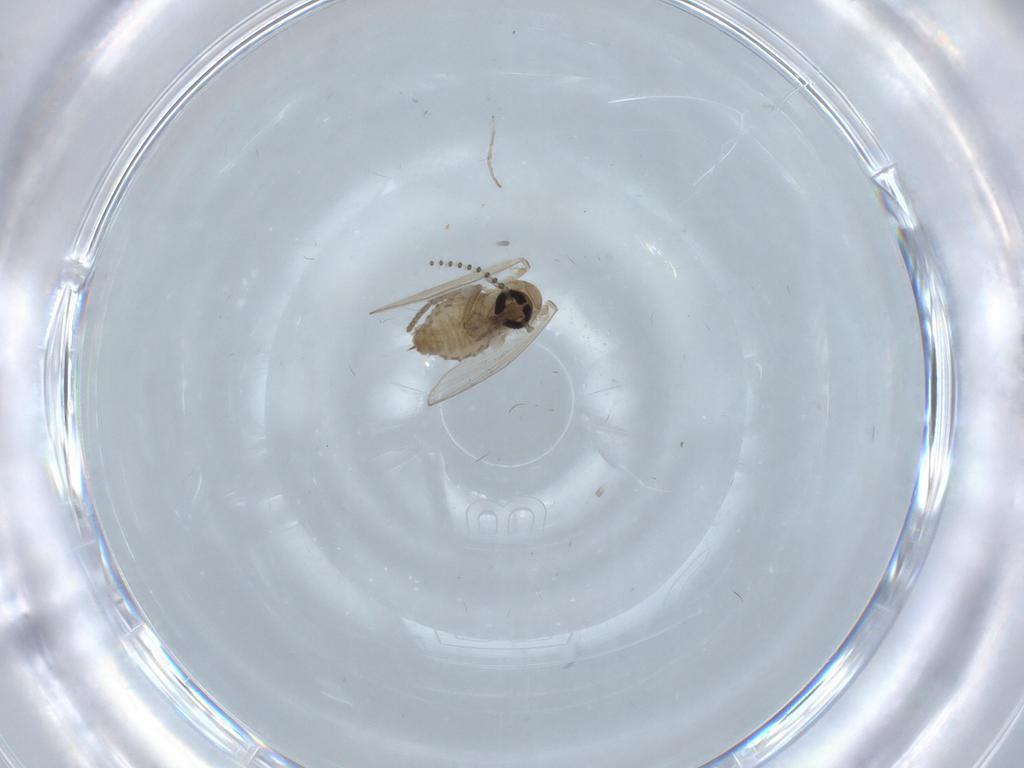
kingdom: Animalia
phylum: Arthropoda
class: Insecta
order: Diptera
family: Psychodidae
